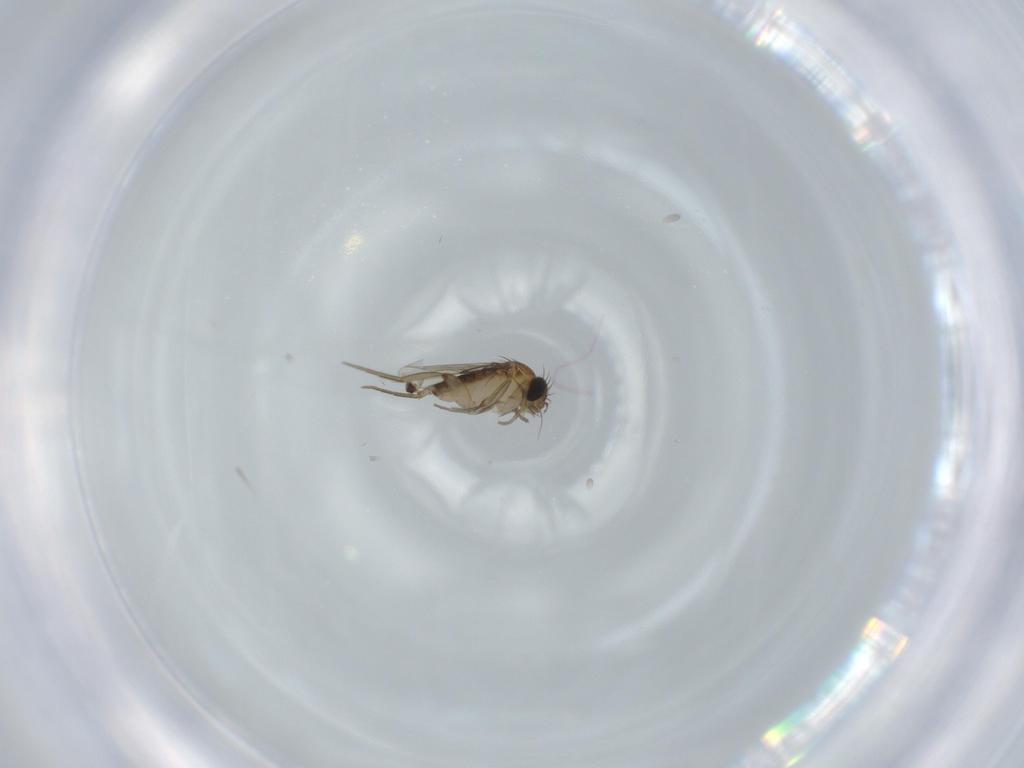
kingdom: Animalia
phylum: Arthropoda
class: Insecta
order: Diptera
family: Phoridae
